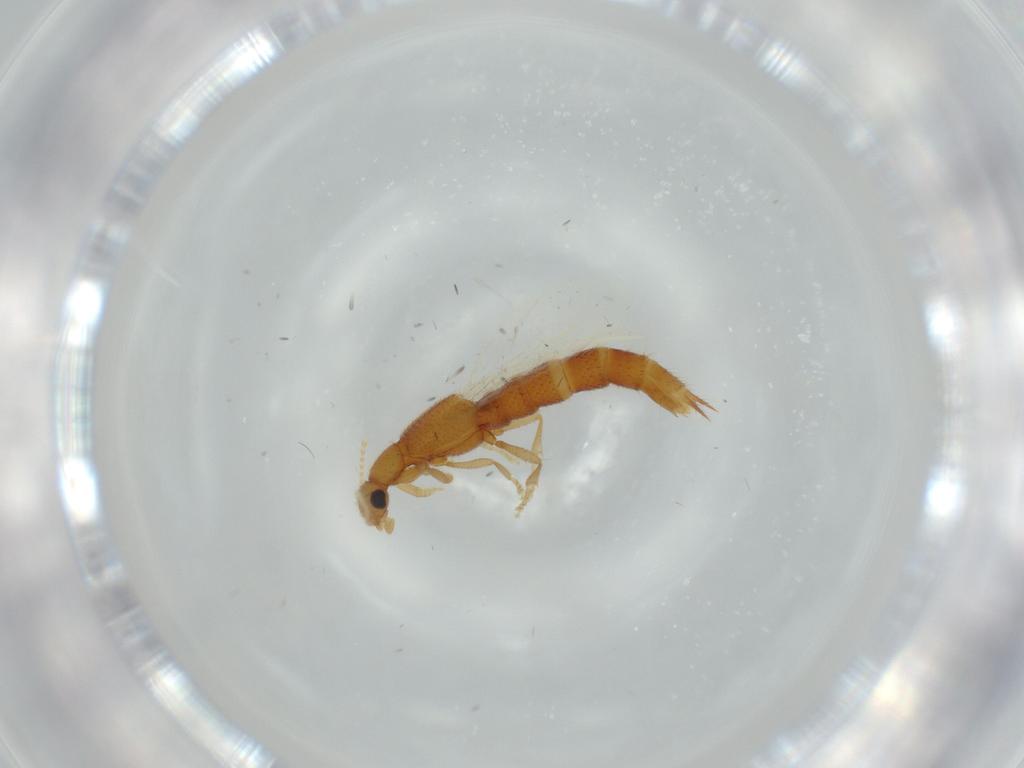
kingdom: Animalia
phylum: Arthropoda
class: Insecta
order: Coleoptera
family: Staphylinidae
